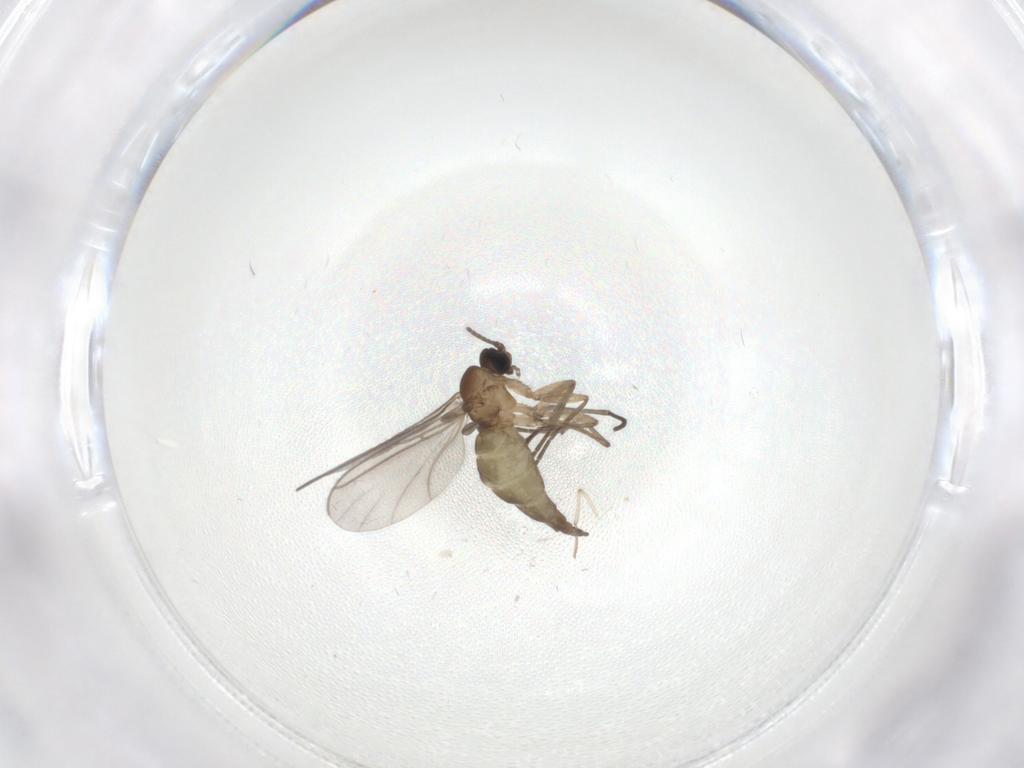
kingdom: Animalia
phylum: Arthropoda
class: Insecta
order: Diptera
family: Sciaridae
